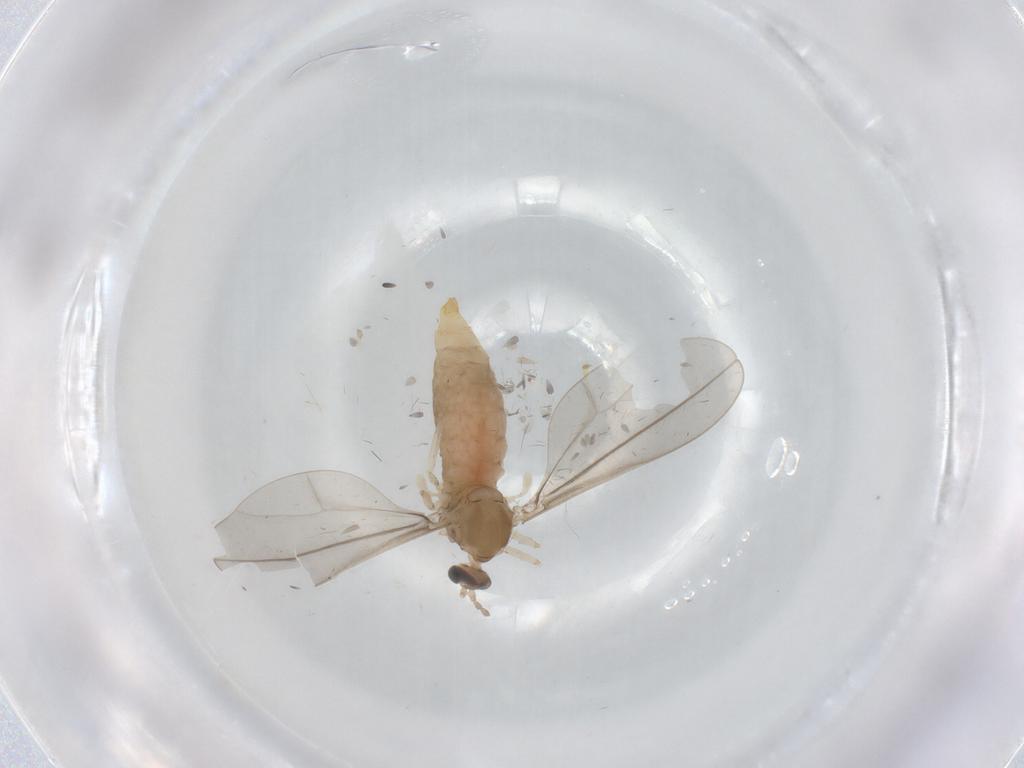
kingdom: Animalia
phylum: Arthropoda
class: Insecta
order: Diptera
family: Cecidomyiidae
